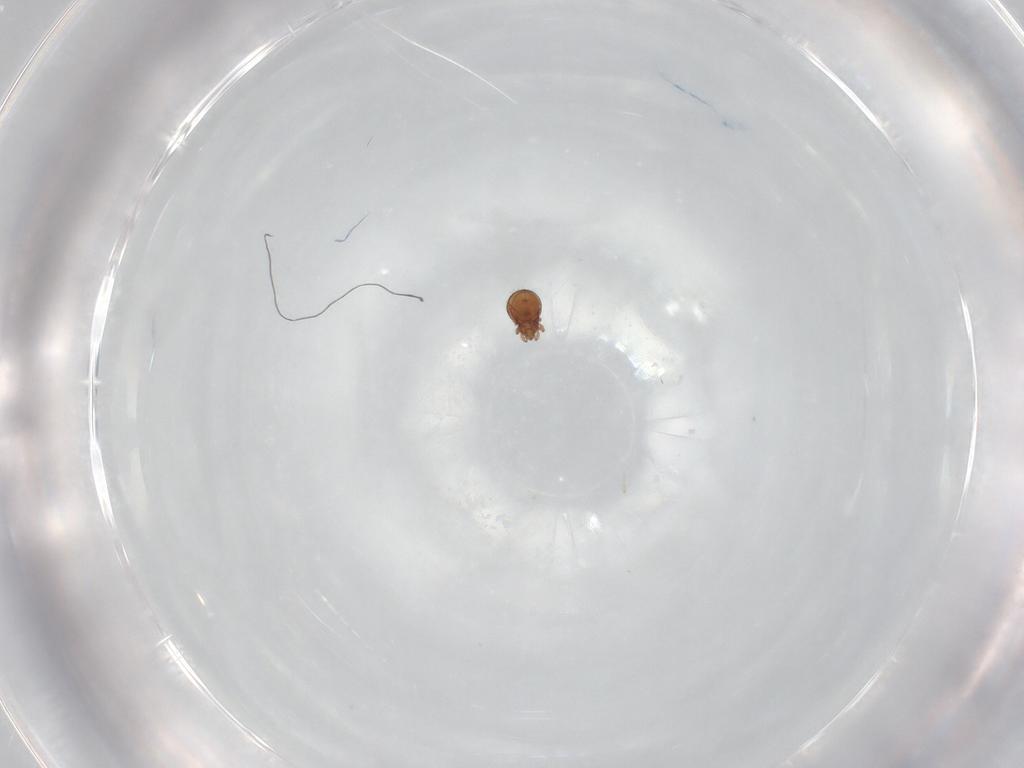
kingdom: Animalia
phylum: Arthropoda
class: Arachnida
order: Sarcoptiformes
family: Oribatulidae
